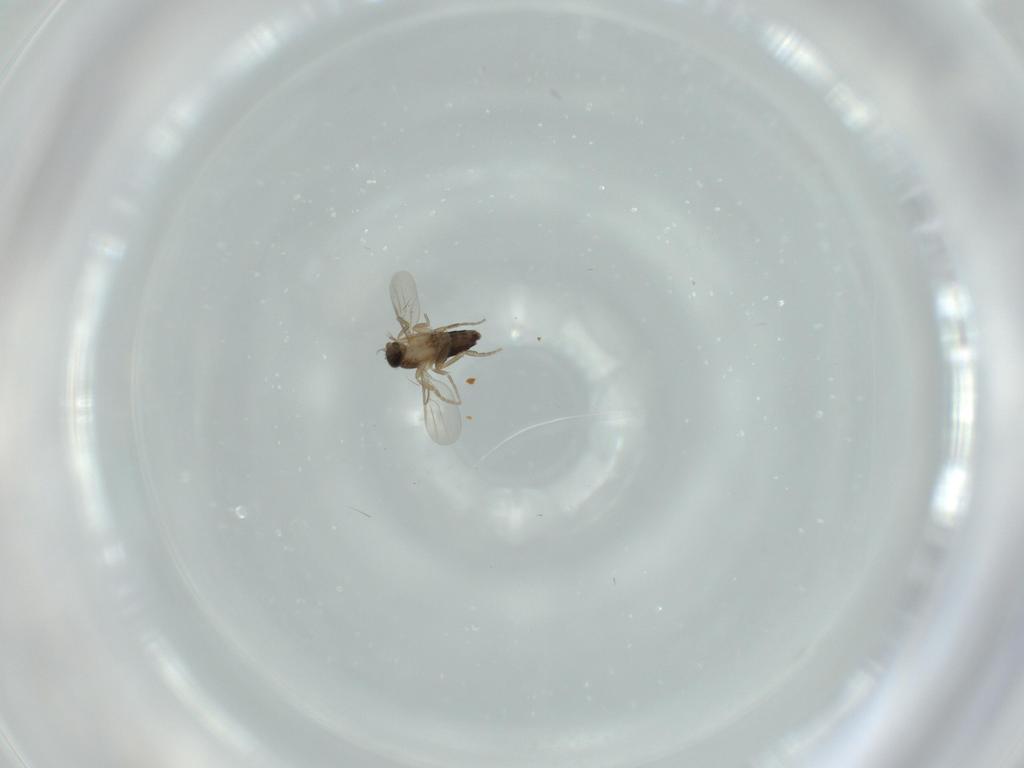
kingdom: Animalia
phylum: Arthropoda
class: Insecta
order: Diptera
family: Phoridae
